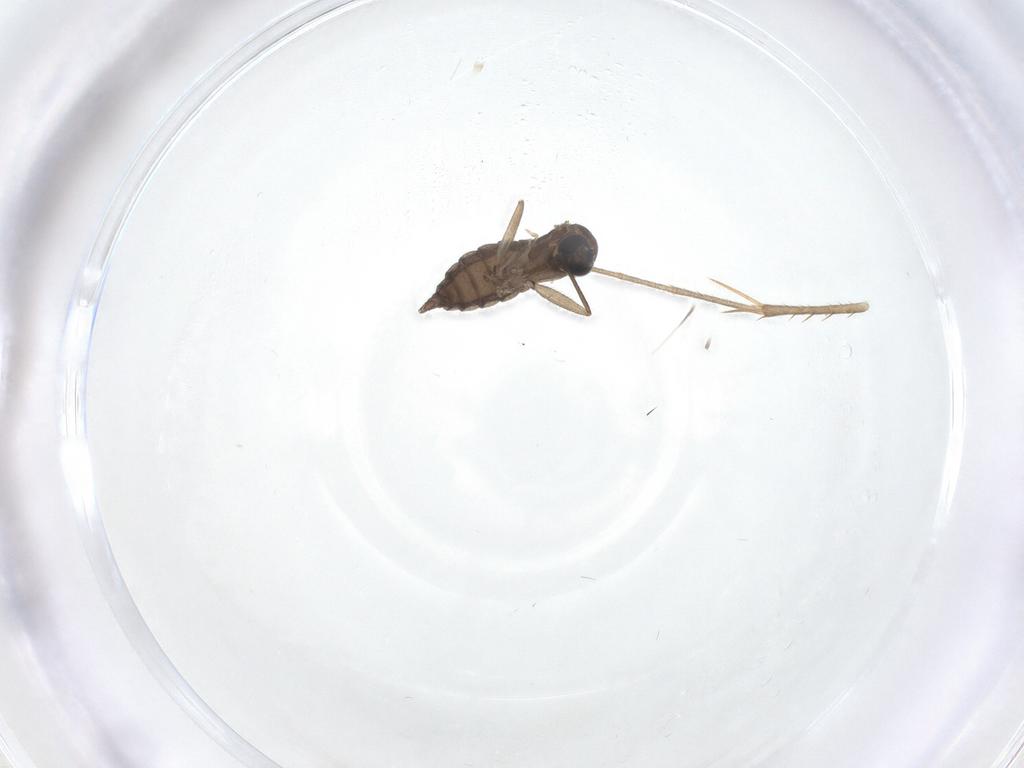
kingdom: Animalia
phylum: Arthropoda
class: Insecta
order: Diptera
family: Sciaridae
